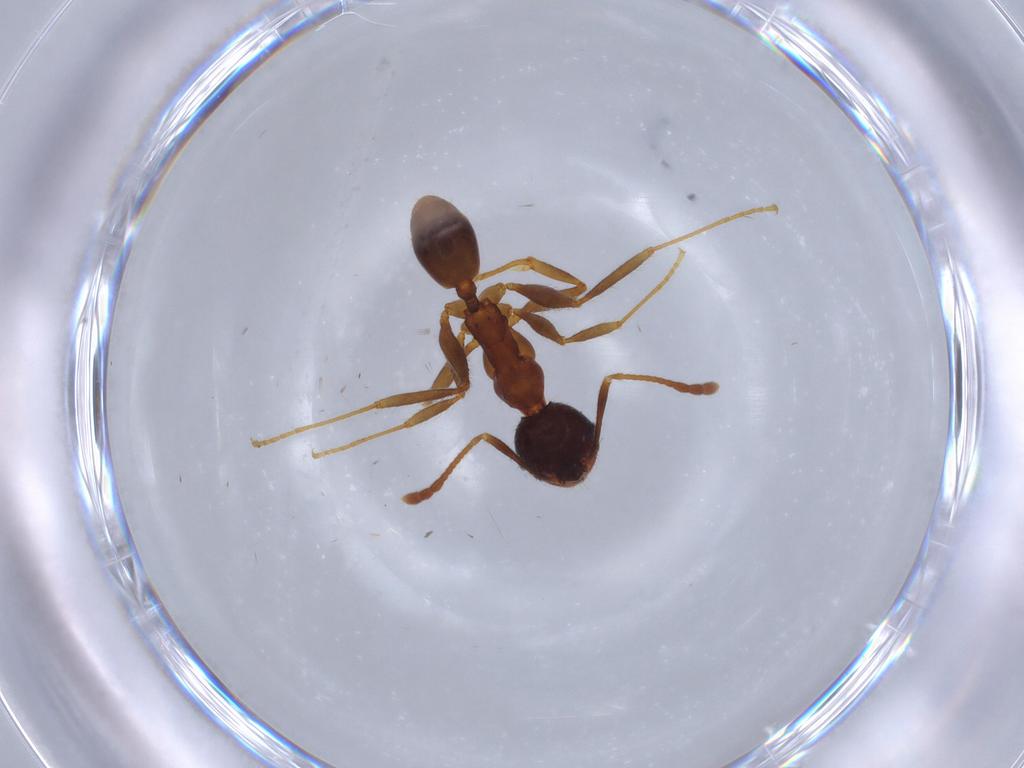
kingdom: Animalia
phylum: Arthropoda
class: Insecta
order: Hymenoptera
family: Formicidae
